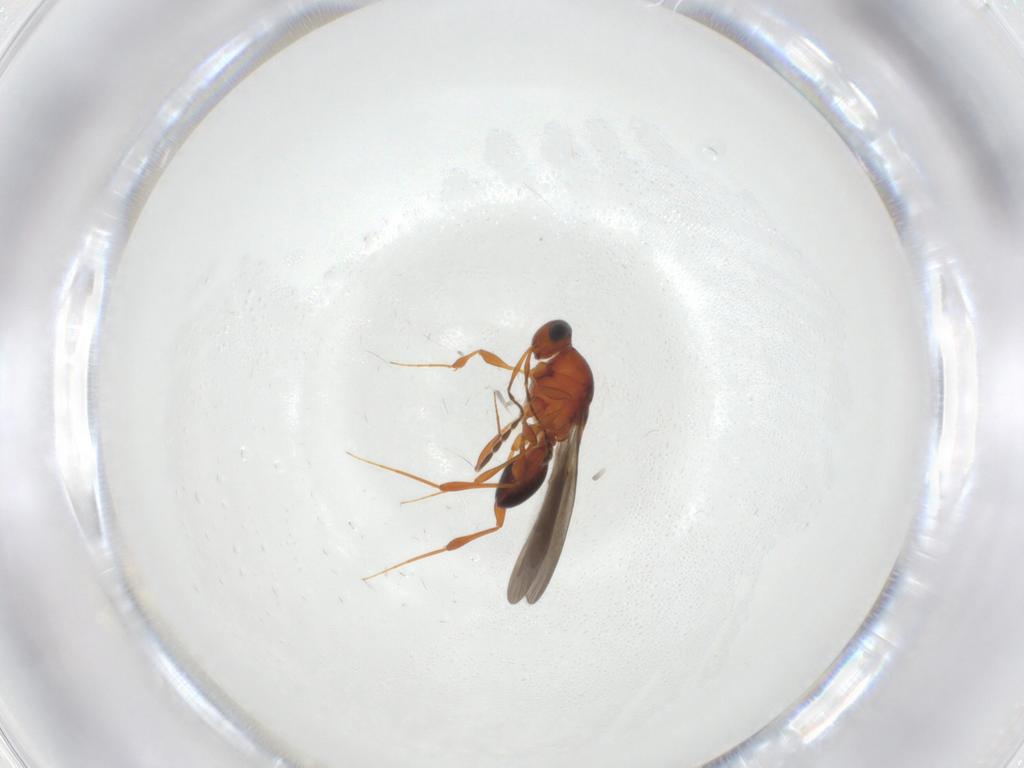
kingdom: Animalia
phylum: Arthropoda
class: Insecta
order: Hymenoptera
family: Platygastridae
